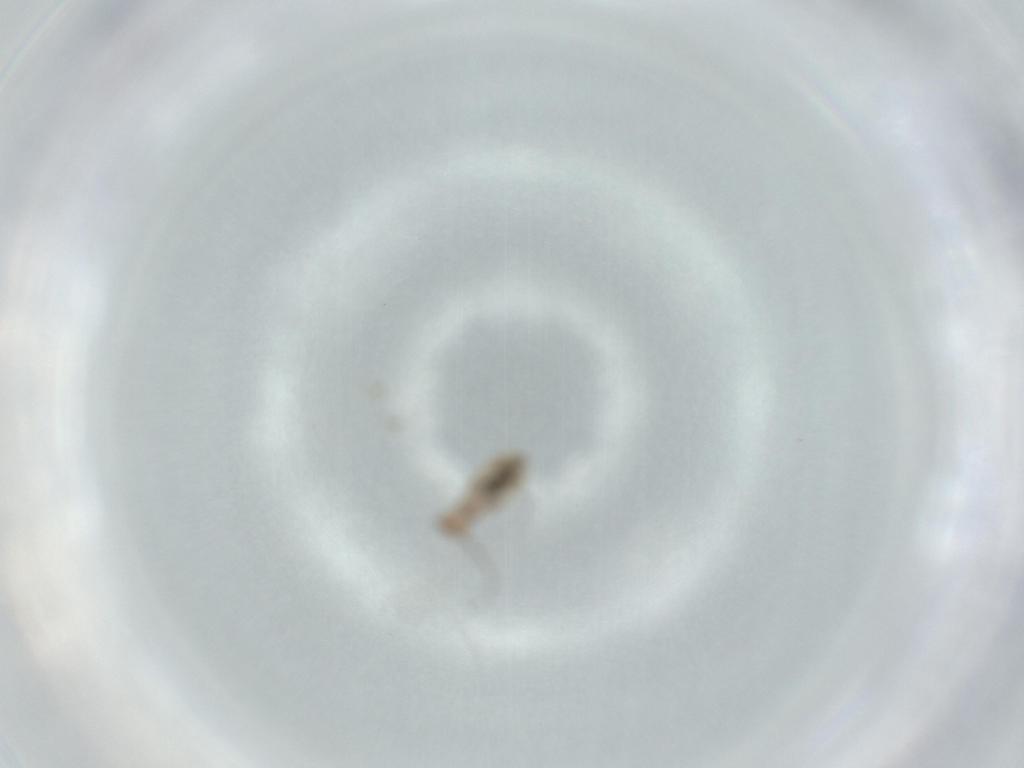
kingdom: Animalia
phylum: Arthropoda
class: Insecta
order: Psocodea
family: Liposcelididae
